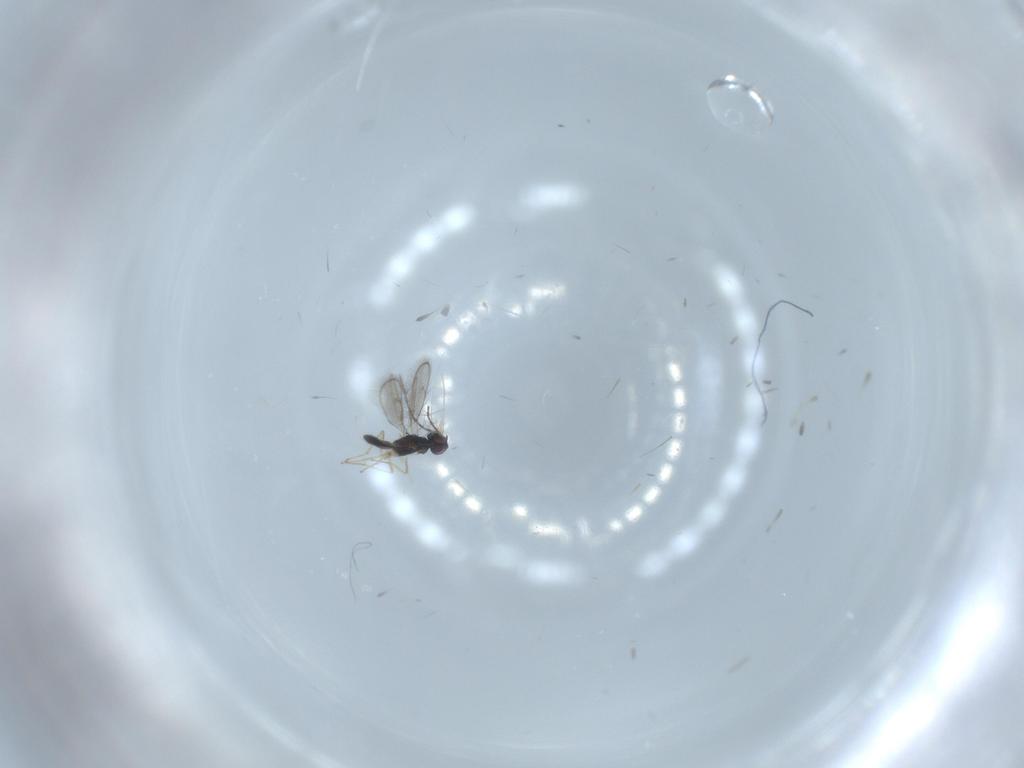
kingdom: Animalia
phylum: Arthropoda
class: Insecta
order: Hymenoptera
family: Pteromalidae
